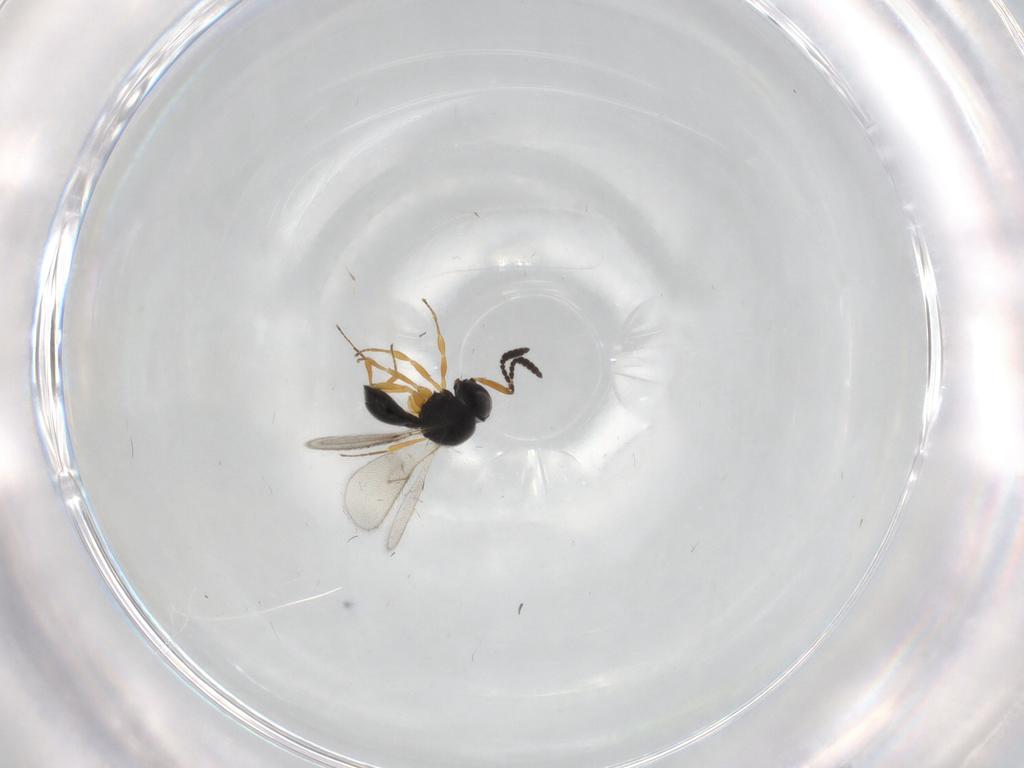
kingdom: Animalia
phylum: Arthropoda
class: Insecta
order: Hymenoptera
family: Scelionidae
